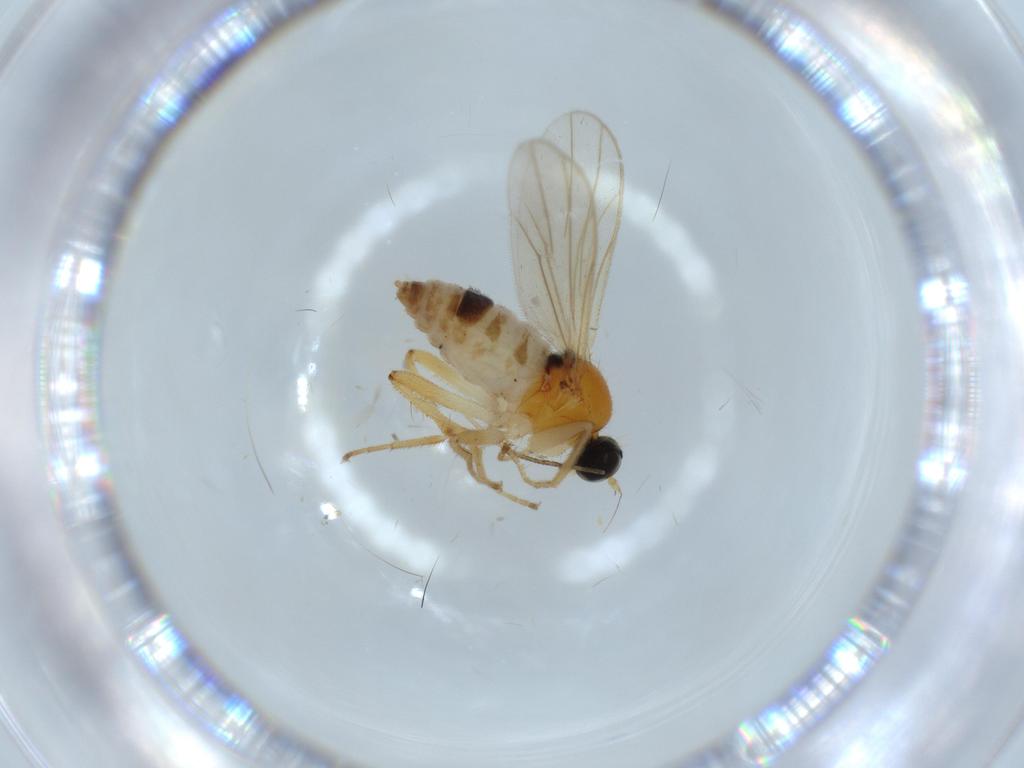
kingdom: Animalia
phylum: Arthropoda
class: Insecta
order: Diptera
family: Hybotidae
